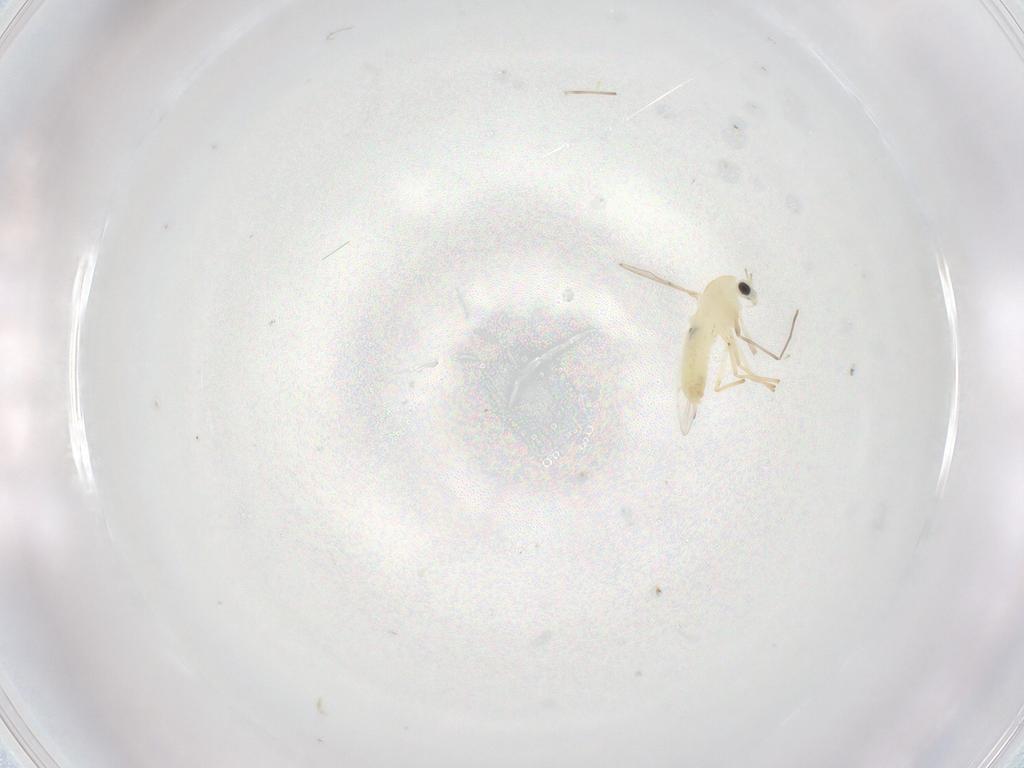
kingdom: Animalia
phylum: Arthropoda
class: Insecta
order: Diptera
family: Chironomidae
